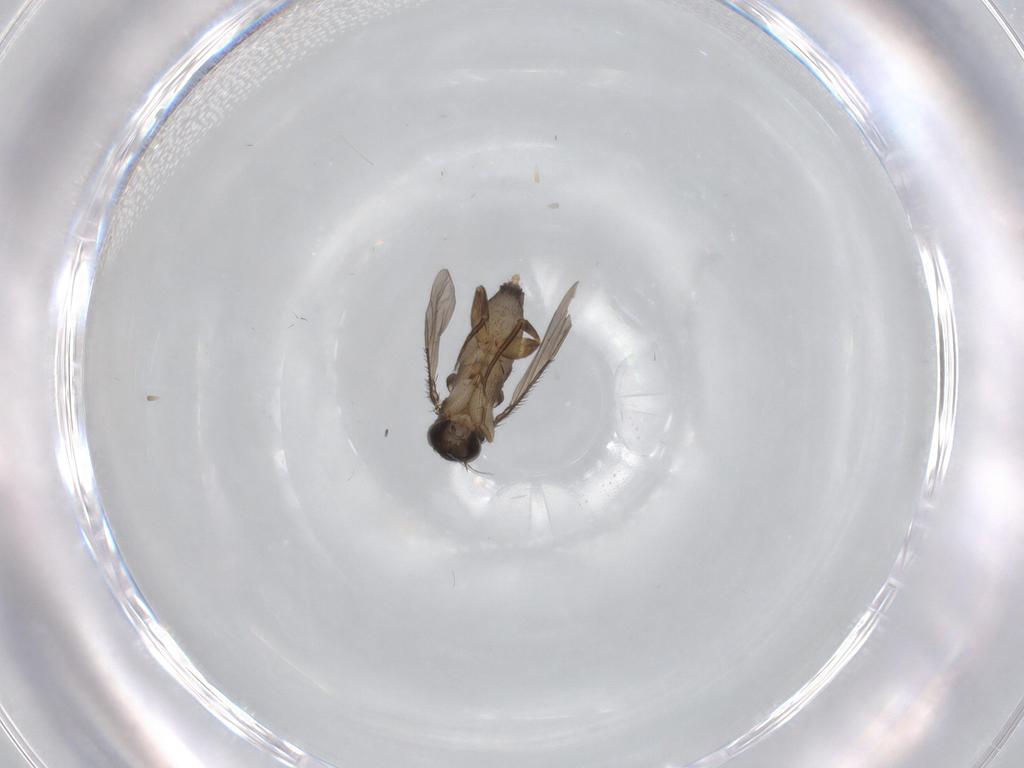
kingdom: Animalia
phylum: Arthropoda
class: Insecta
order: Diptera
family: Phoridae
